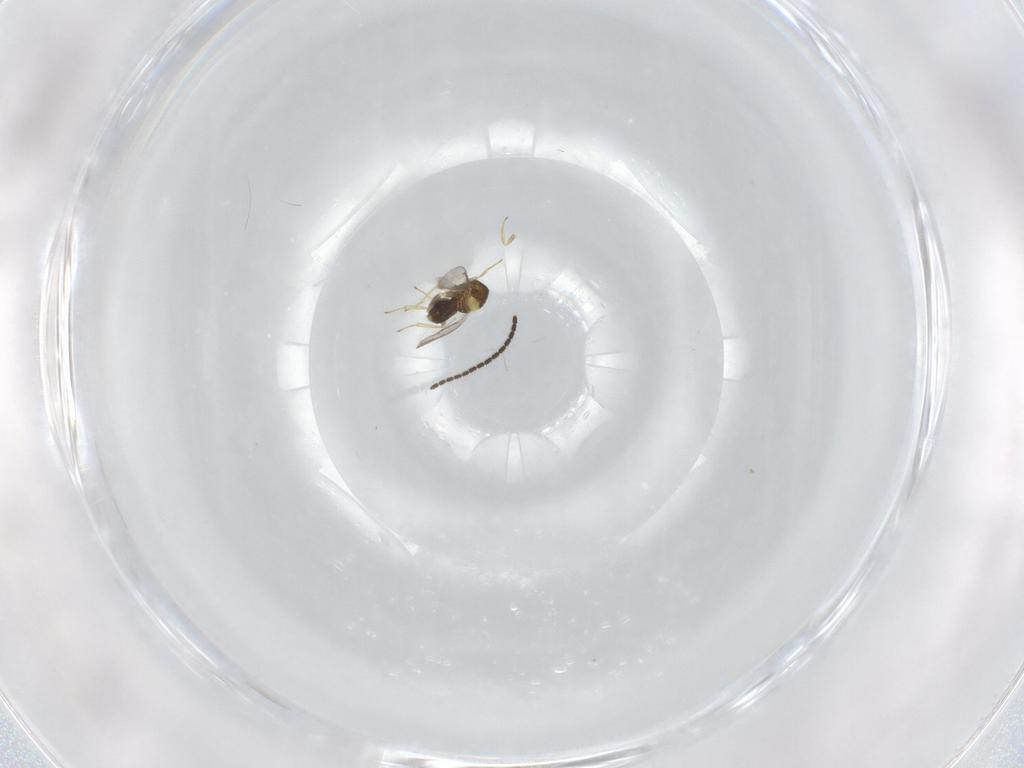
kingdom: Animalia
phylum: Arthropoda
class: Insecta
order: Hymenoptera
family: Aphelinidae
